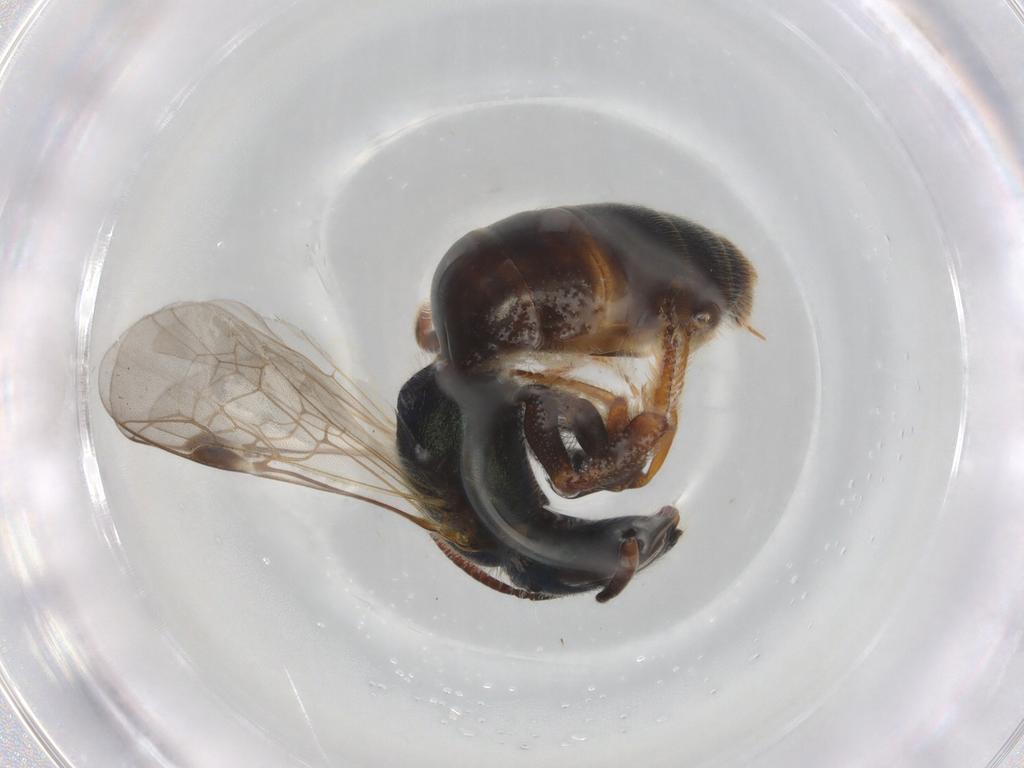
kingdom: Animalia
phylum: Arthropoda
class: Insecta
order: Hymenoptera
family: Halictidae
